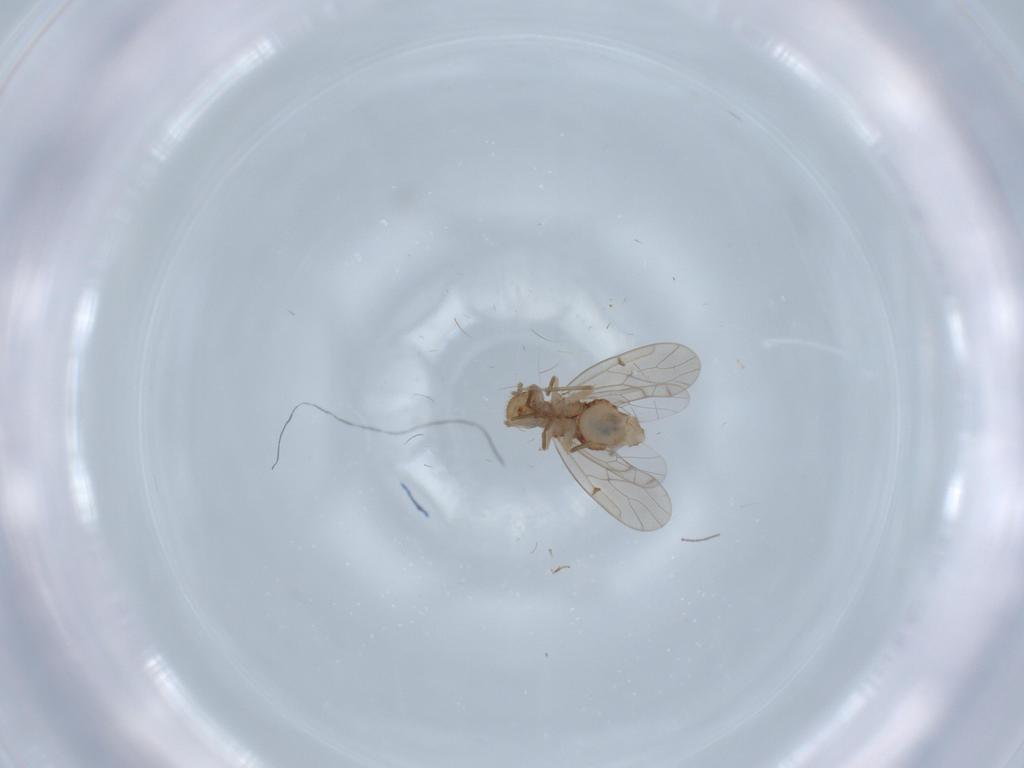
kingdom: Animalia
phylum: Arthropoda
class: Insecta
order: Psocodea
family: Ectopsocidae
